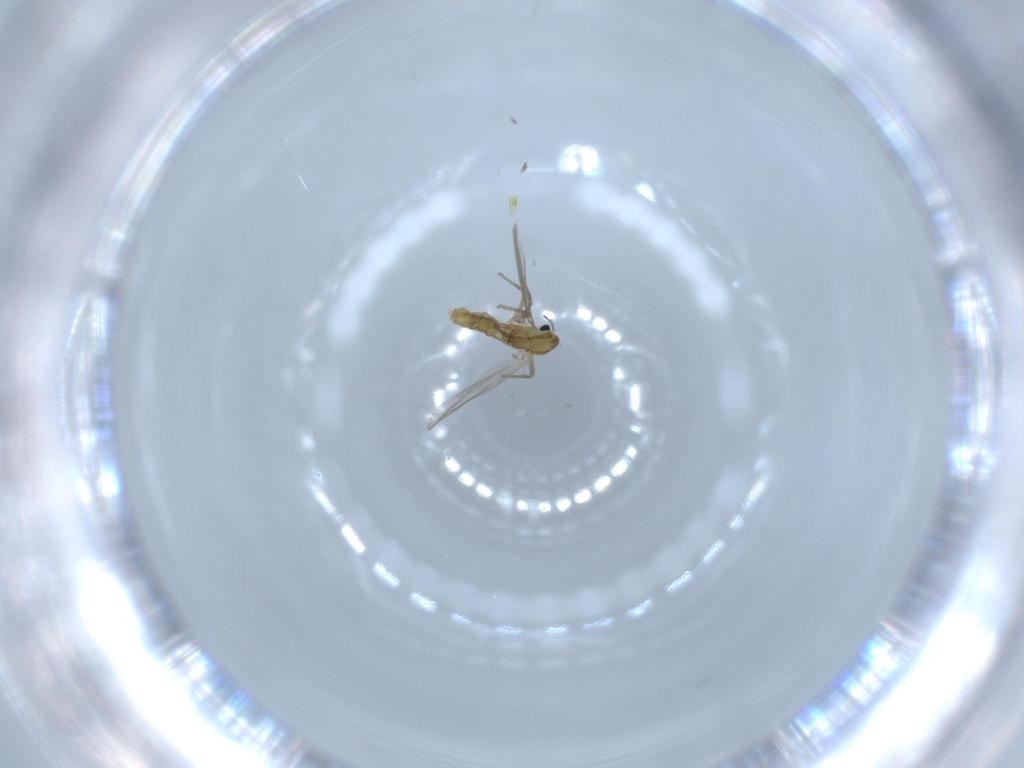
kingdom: Animalia
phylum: Arthropoda
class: Insecta
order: Diptera
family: Chironomidae
